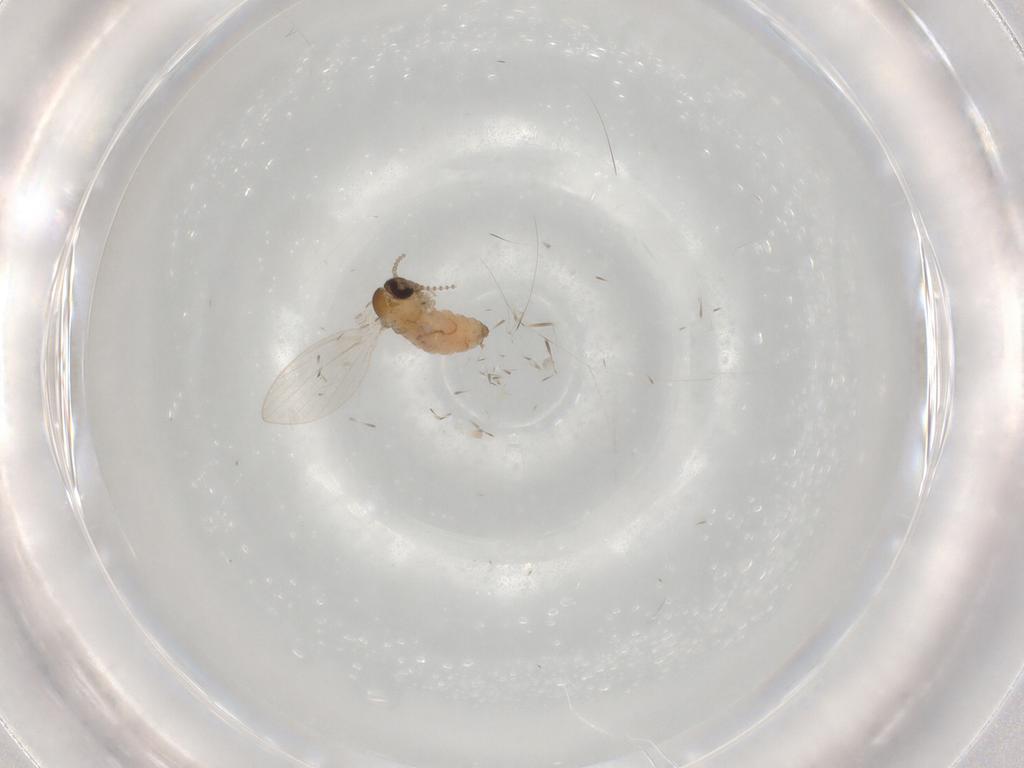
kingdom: Animalia
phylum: Arthropoda
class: Insecta
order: Diptera
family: Psychodidae
